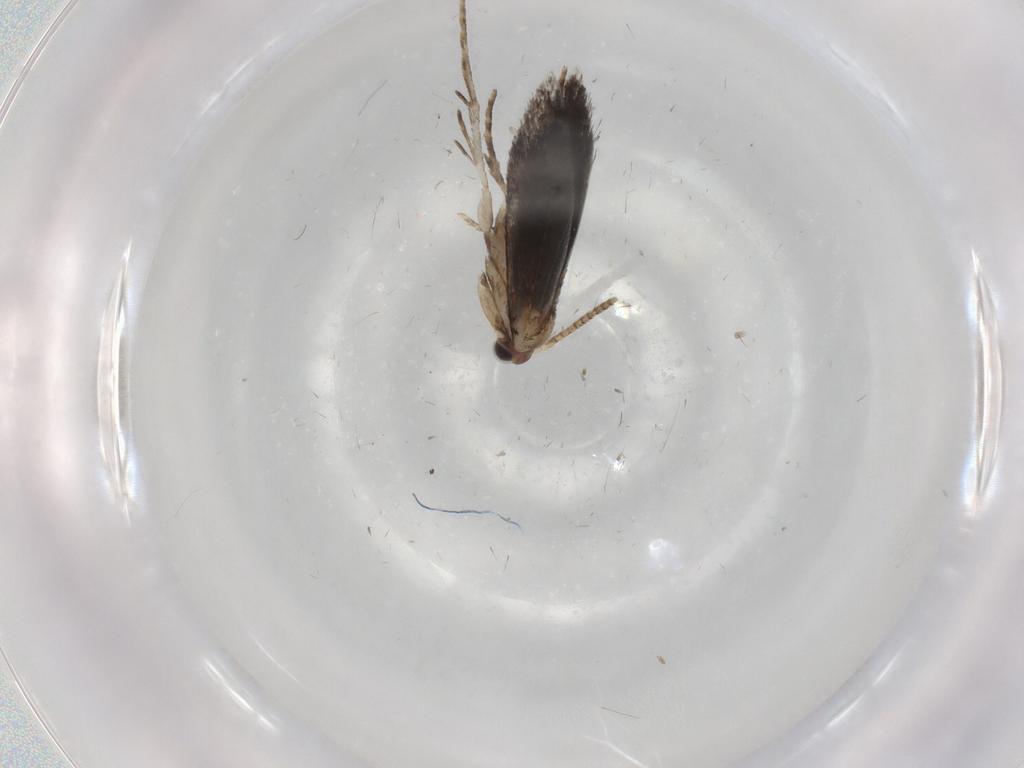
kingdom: Animalia
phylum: Arthropoda
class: Insecta
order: Lepidoptera
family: Tineidae
